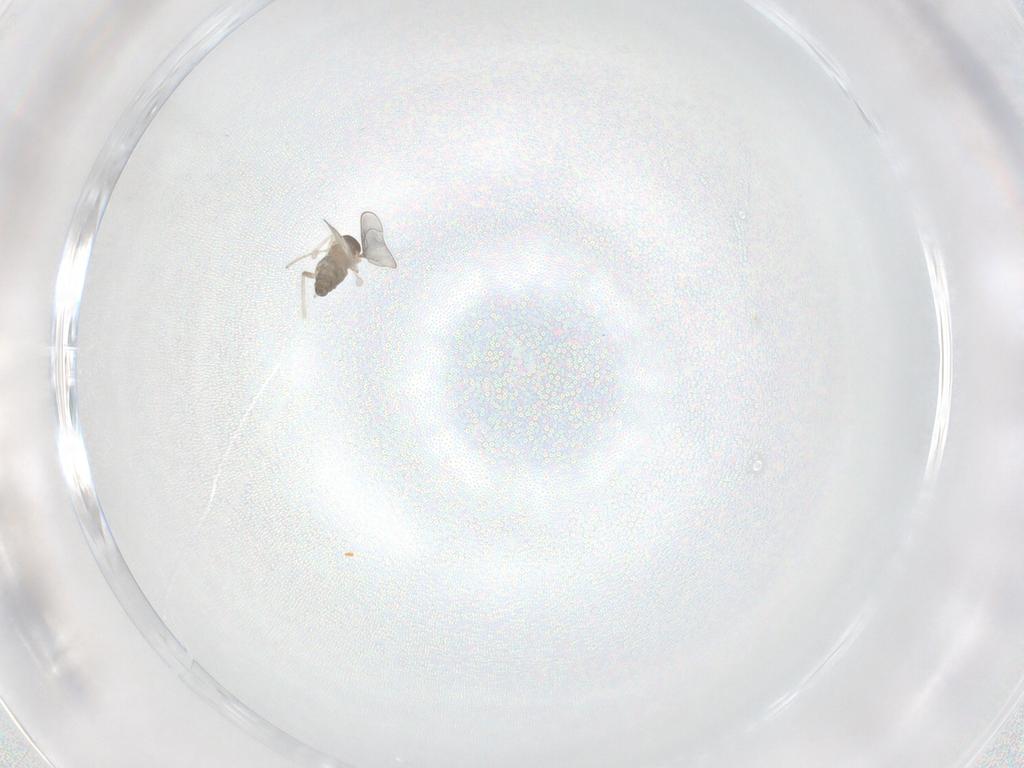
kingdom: Animalia
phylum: Arthropoda
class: Insecta
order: Diptera
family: Cecidomyiidae
